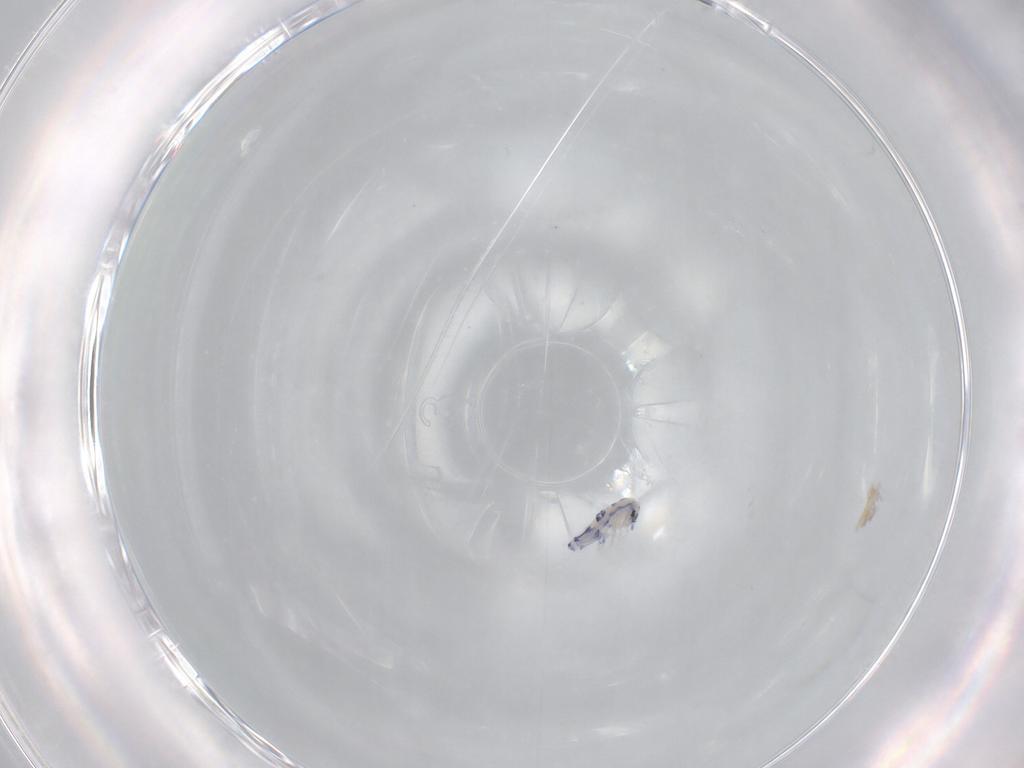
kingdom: Animalia
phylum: Arthropoda
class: Collembola
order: Entomobryomorpha
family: Entomobryidae
